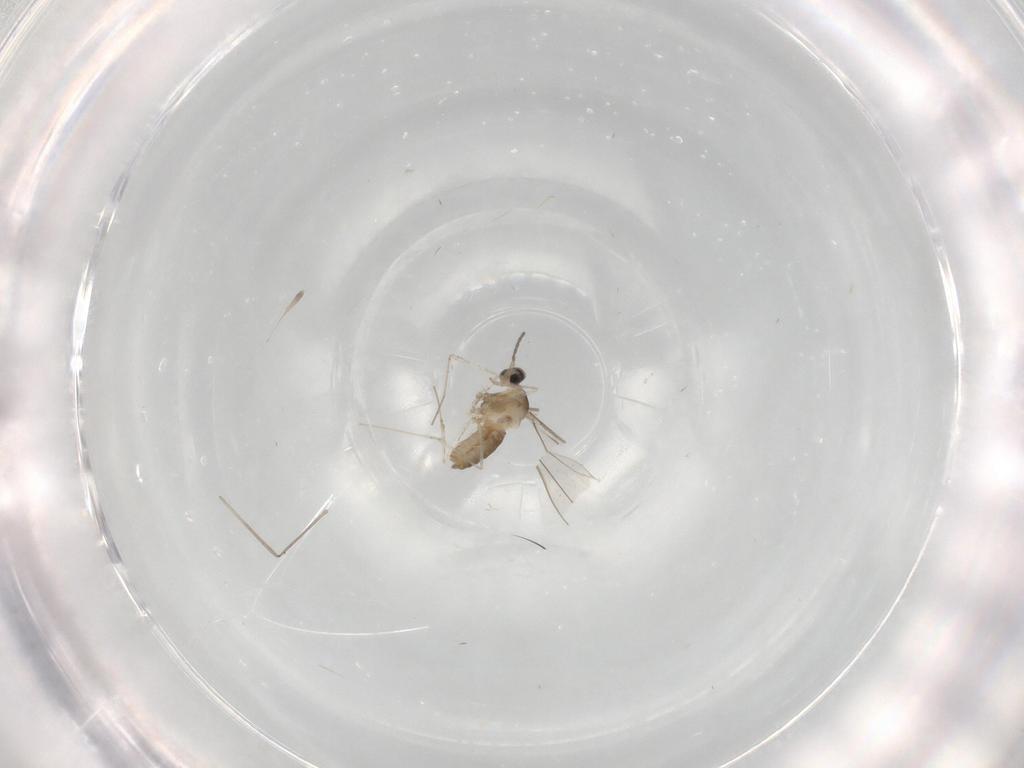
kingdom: Animalia
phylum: Arthropoda
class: Insecta
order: Diptera
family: Cecidomyiidae
